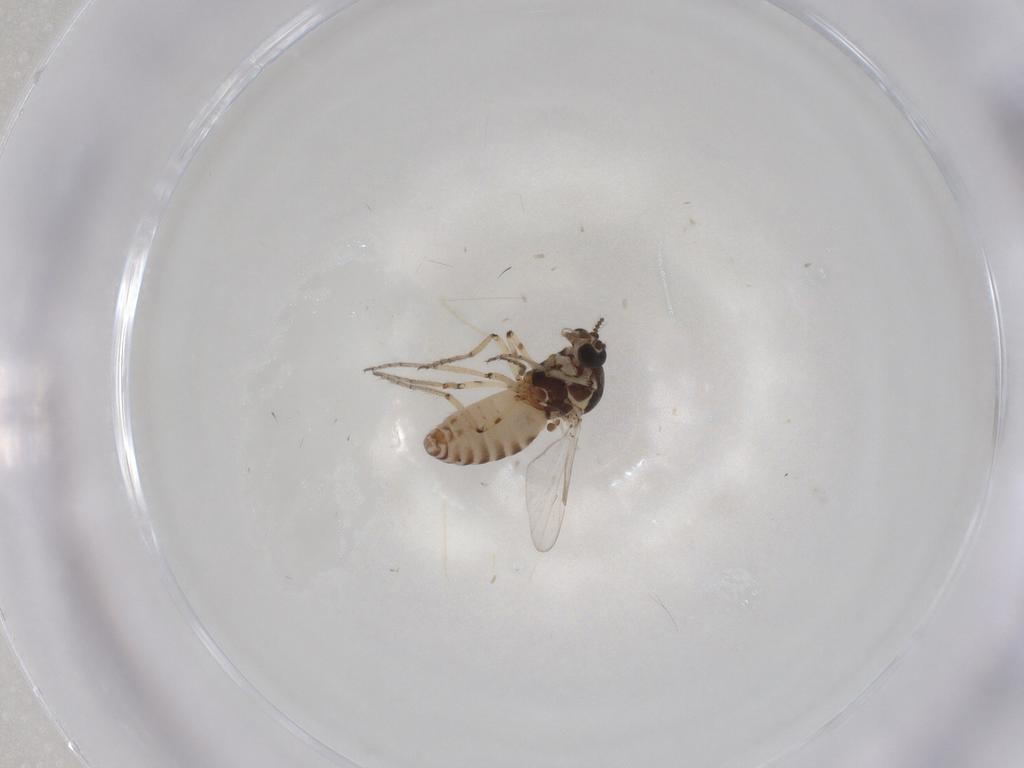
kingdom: Animalia
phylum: Arthropoda
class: Insecta
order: Diptera
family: Ceratopogonidae
